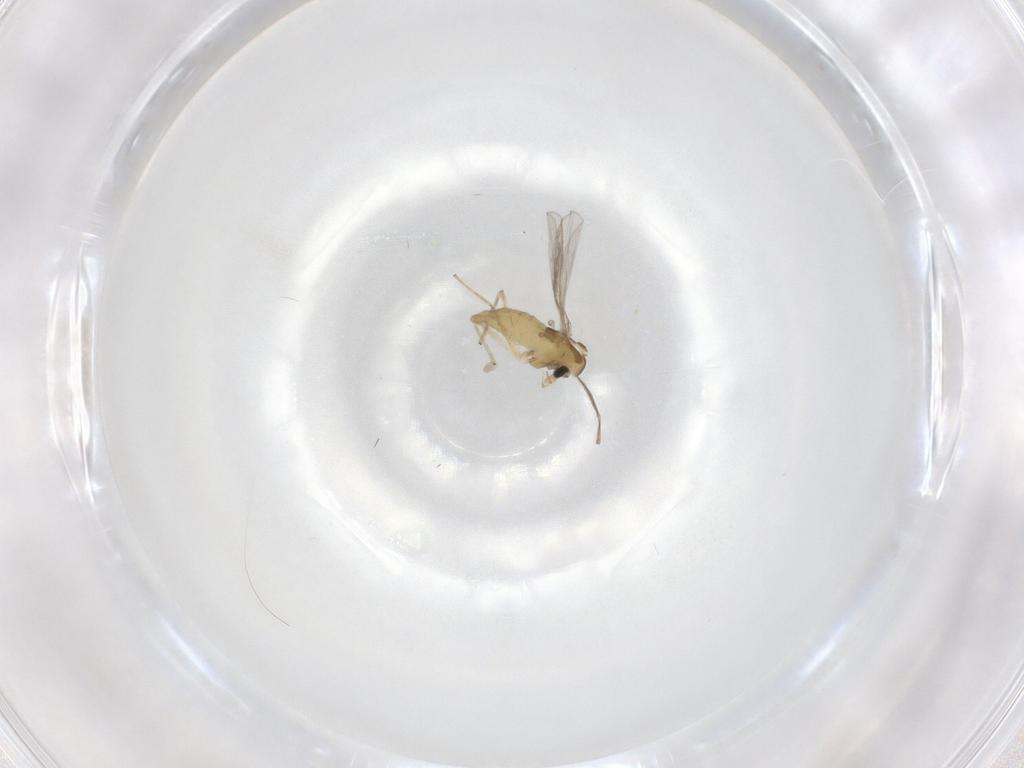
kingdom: Animalia
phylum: Arthropoda
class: Insecta
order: Diptera
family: Chironomidae
